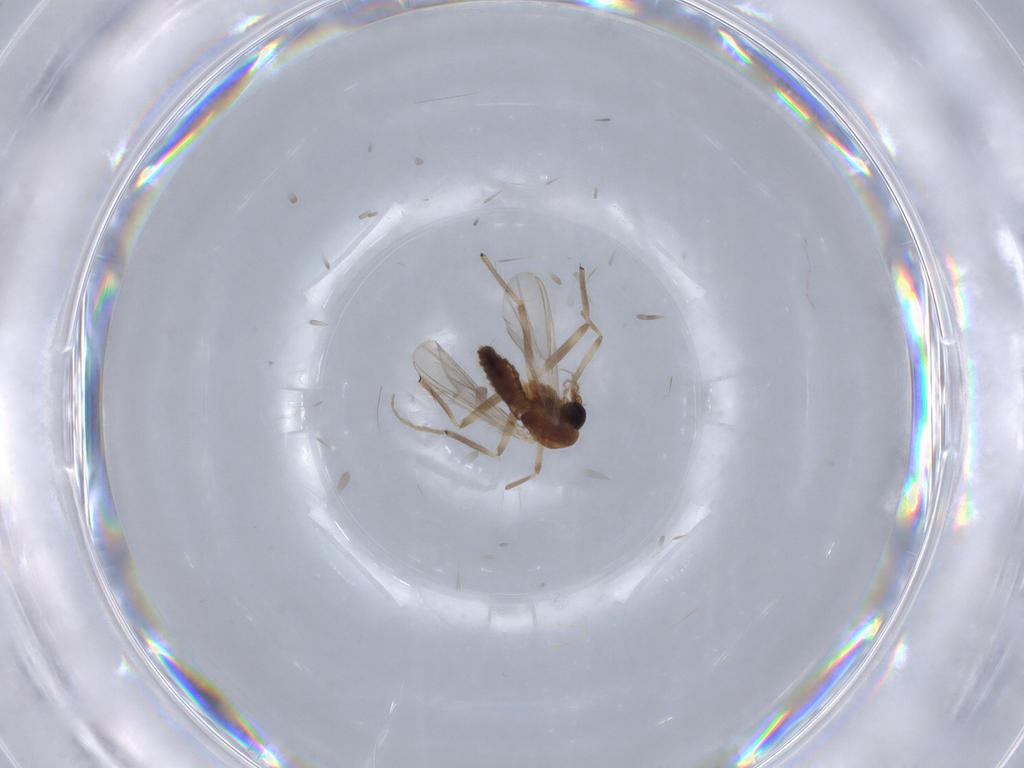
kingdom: Animalia
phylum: Arthropoda
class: Insecta
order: Diptera
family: Chironomidae
